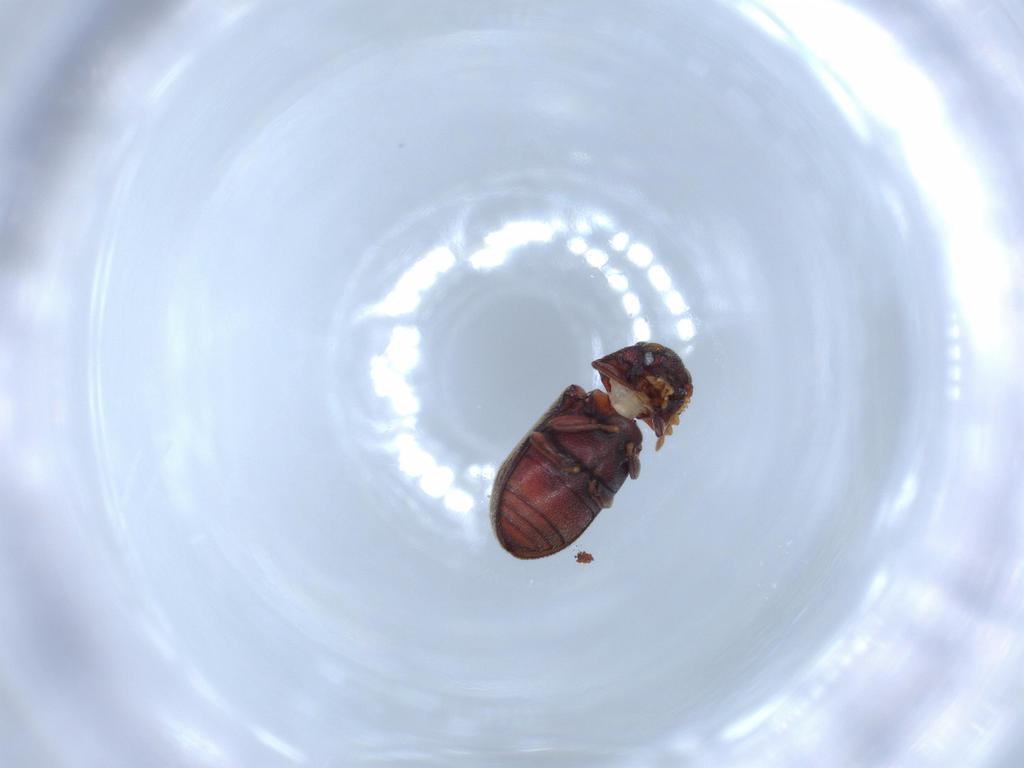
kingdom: Animalia
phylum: Arthropoda
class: Insecta
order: Coleoptera
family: Anobiidae
